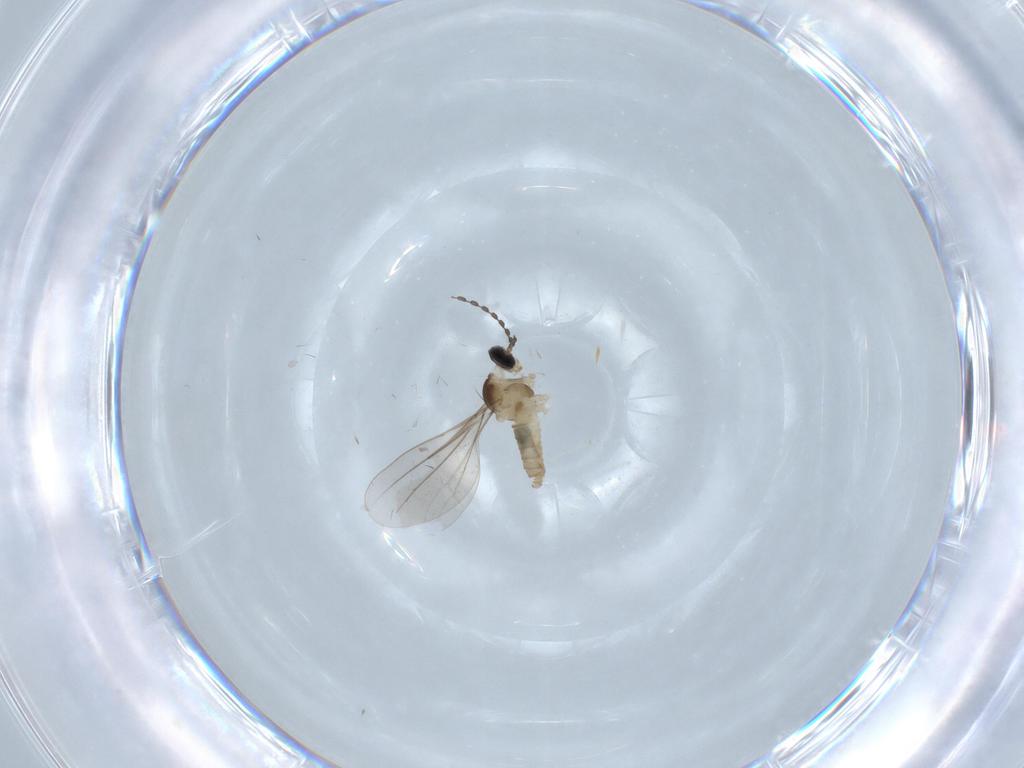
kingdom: Animalia
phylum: Arthropoda
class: Insecta
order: Diptera
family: Cecidomyiidae
